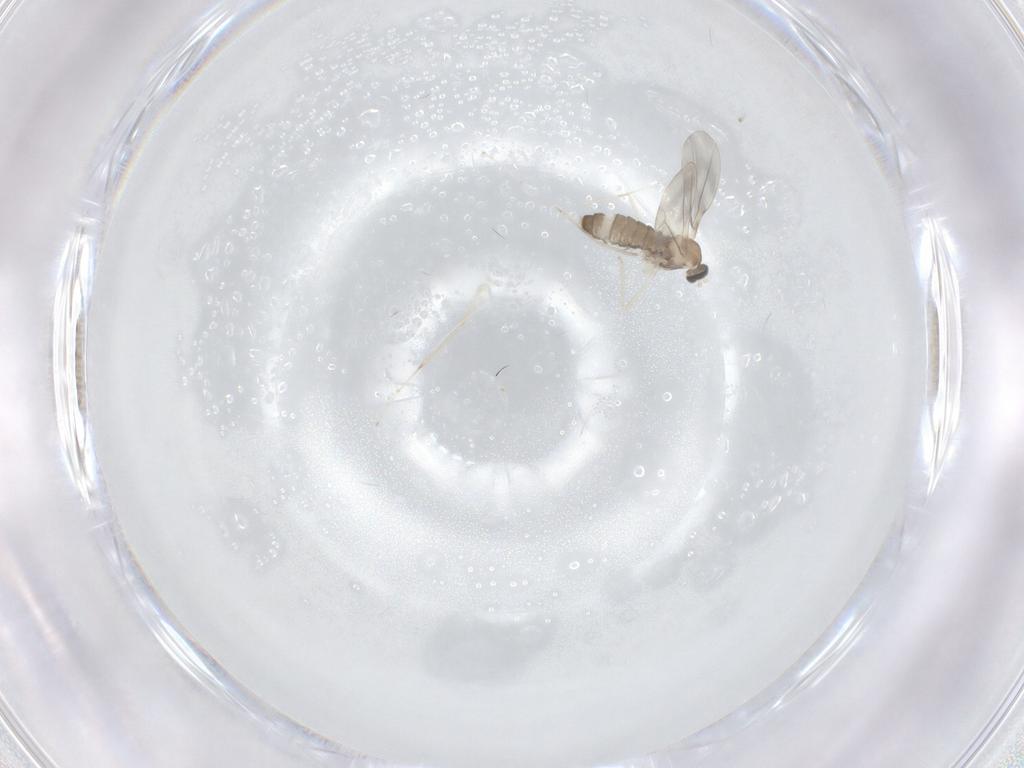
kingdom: Animalia
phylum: Arthropoda
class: Insecta
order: Diptera
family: Cecidomyiidae
